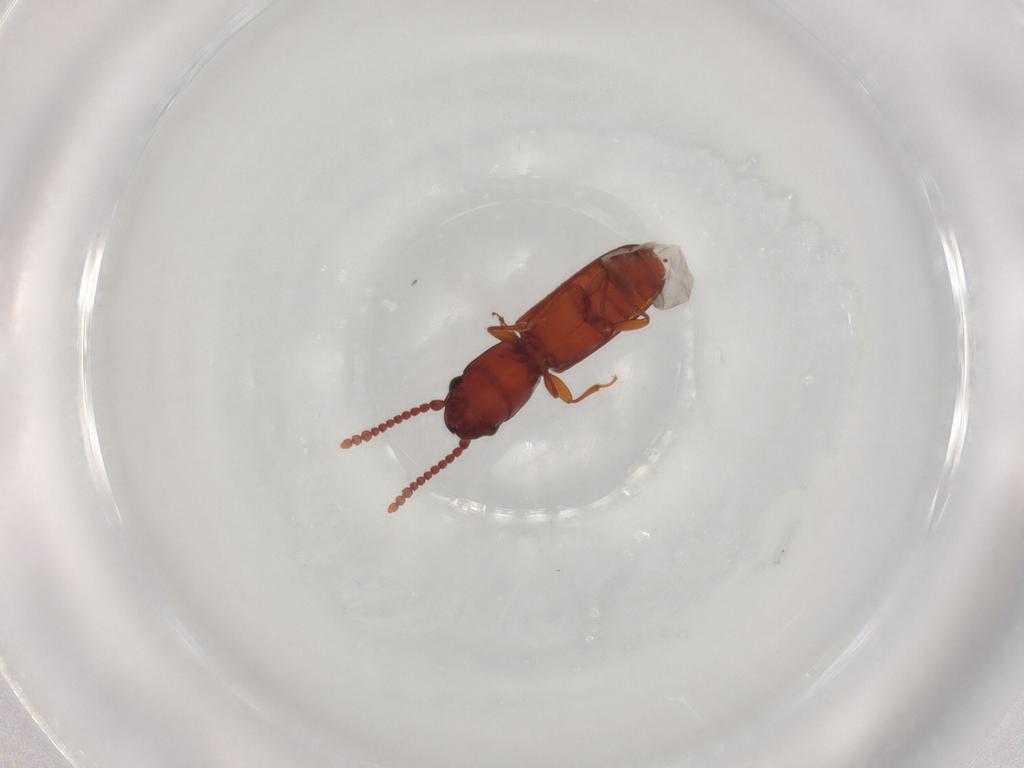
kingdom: Animalia
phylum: Arthropoda
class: Insecta
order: Coleoptera
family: Laemophloeidae
